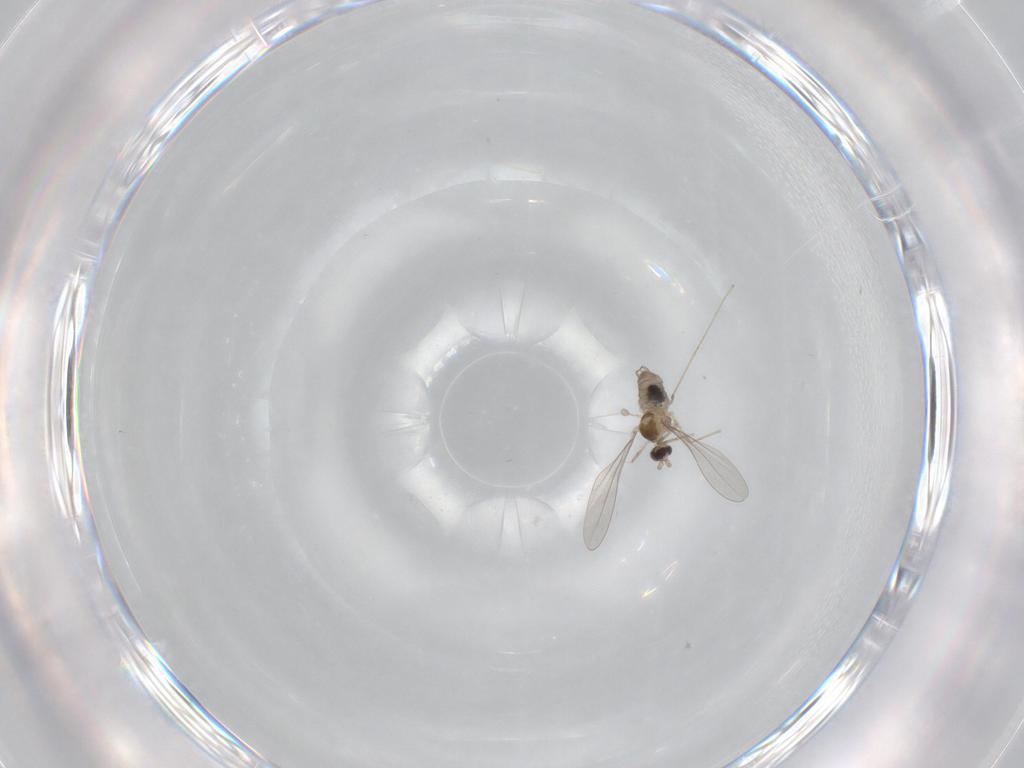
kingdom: Animalia
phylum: Arthropoda
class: Insecta
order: Diptera
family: Cecidomyiidae
